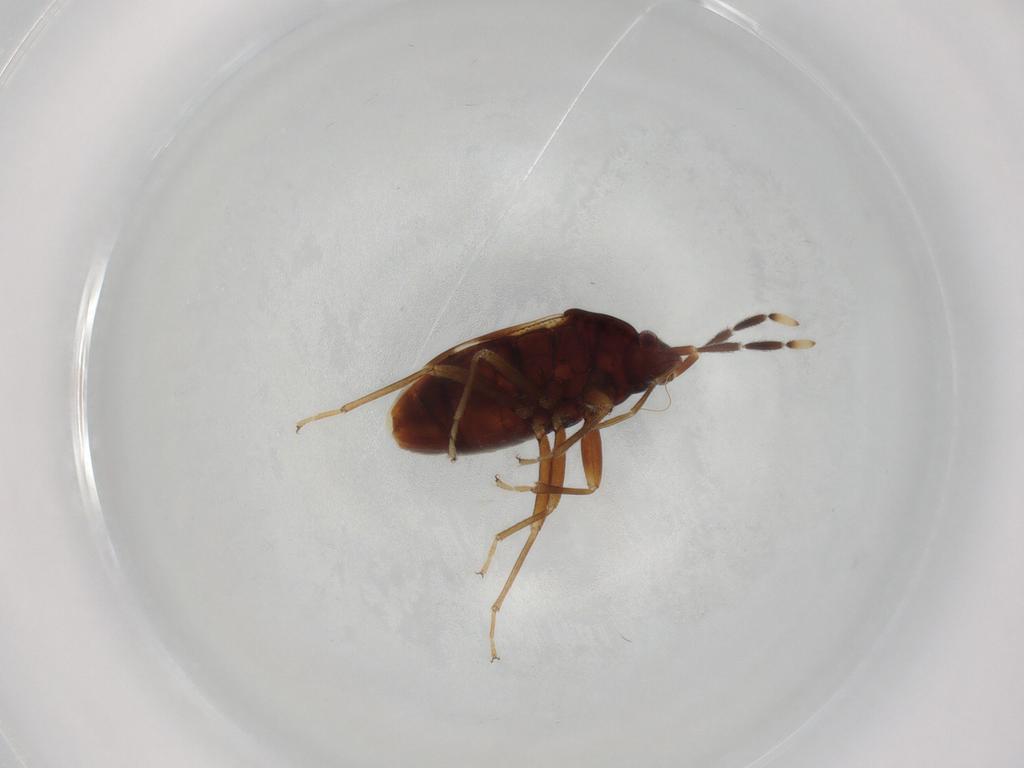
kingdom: Animalia
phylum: Arthropoda
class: Insecta
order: Hemiptera
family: Rhyparochromidae
